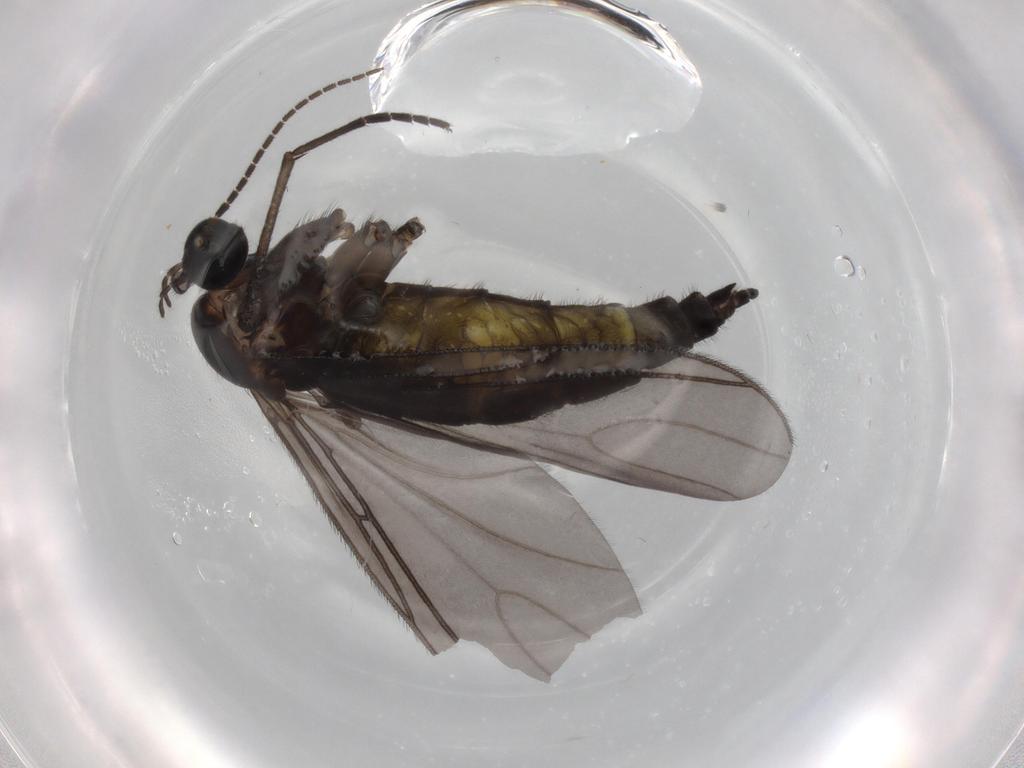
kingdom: Animalia
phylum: Arthropoda
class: Insecta
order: Diptera
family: Sciaridae
